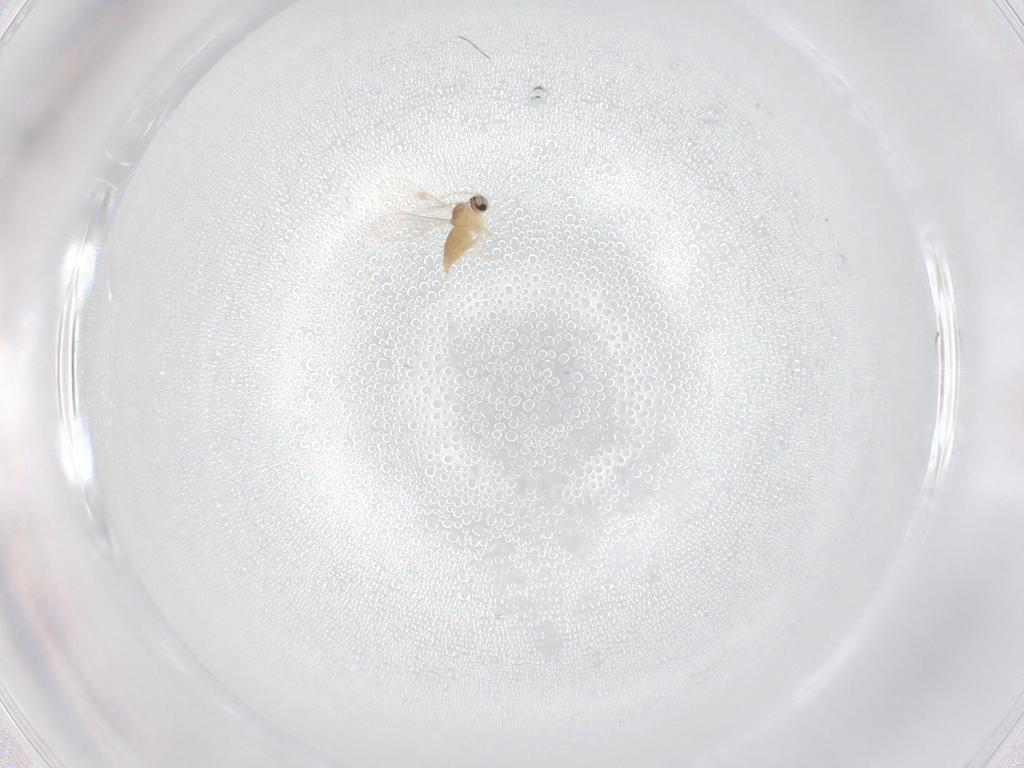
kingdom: Animalia
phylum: Arthropoda
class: Insecta
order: Diptera
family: Cecidomyiidae
